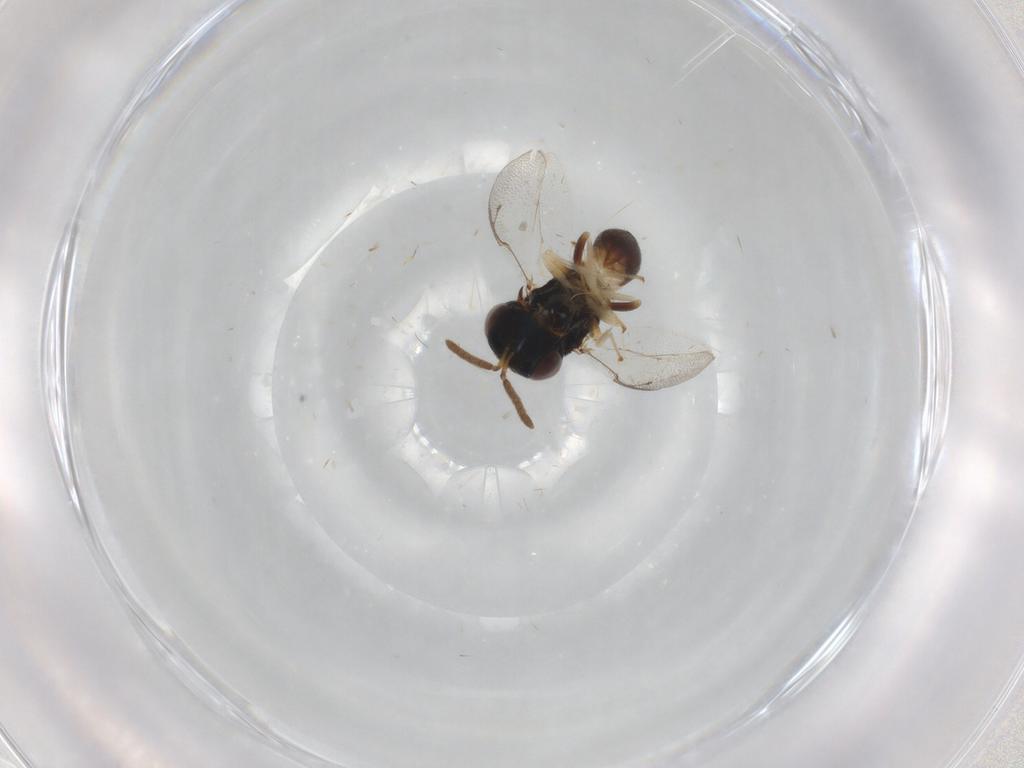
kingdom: Animalia
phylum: Arthropoda
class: Insecta
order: Hymenoptera
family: Pteromalidae
